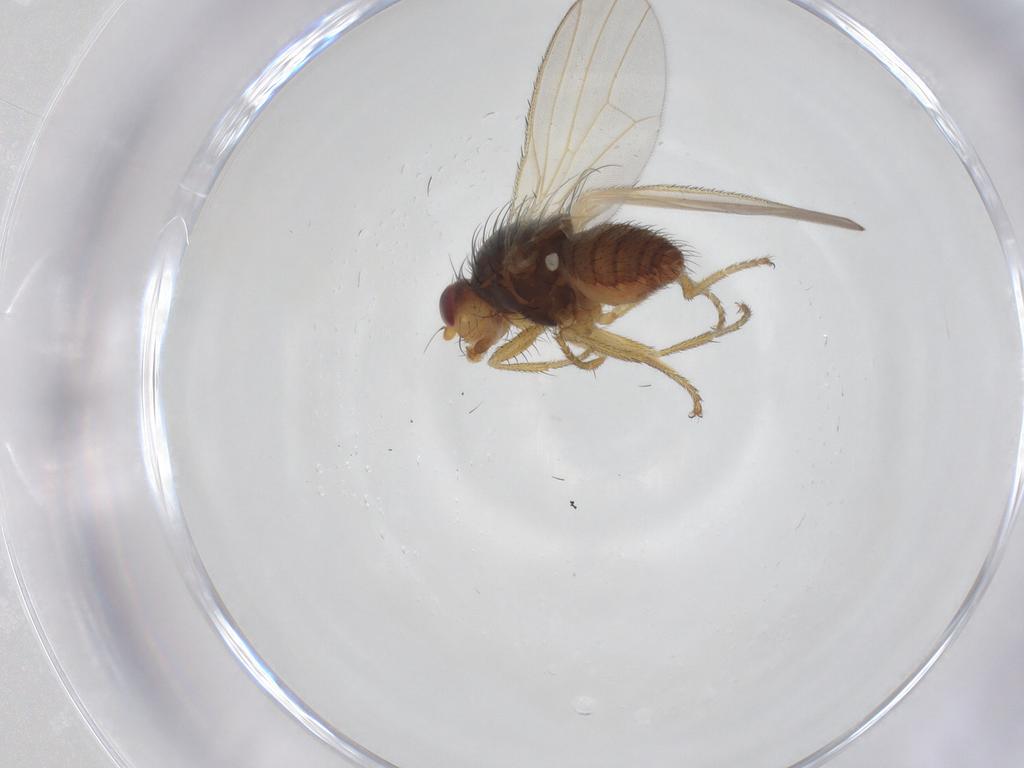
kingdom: Animalia
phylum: Arthropoda
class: Insecta
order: Diptera
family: Heleomyzidae
